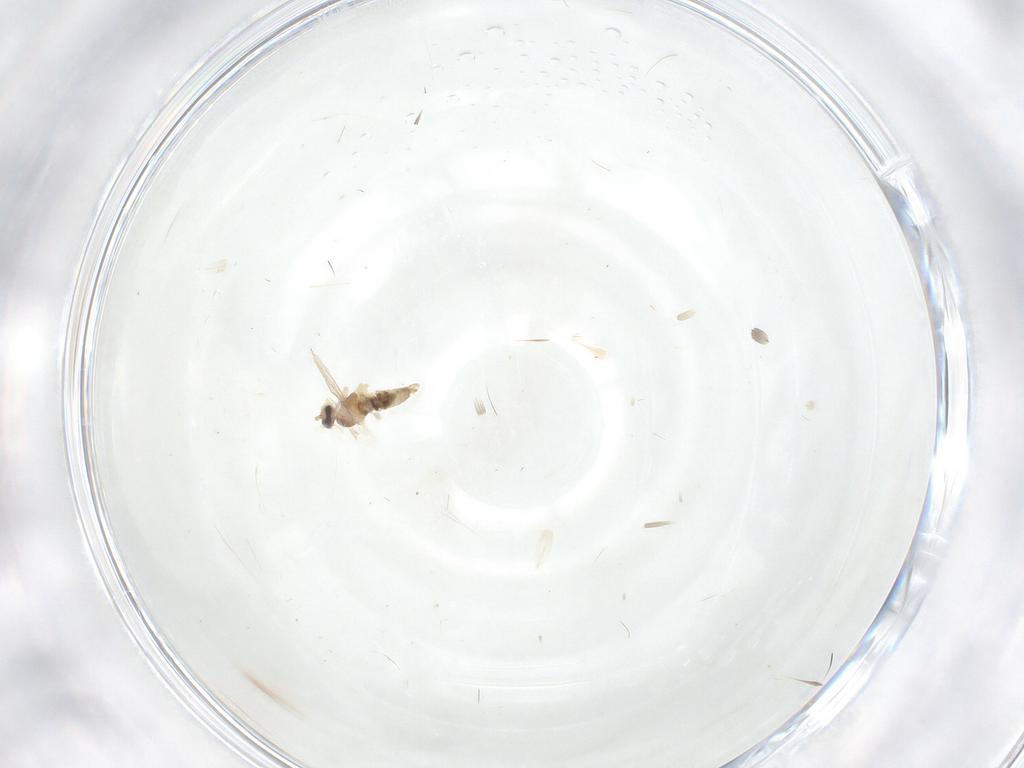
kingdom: Animalia
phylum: Arthropoda
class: Insecta
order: Diptera
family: Cecidomyiidae
